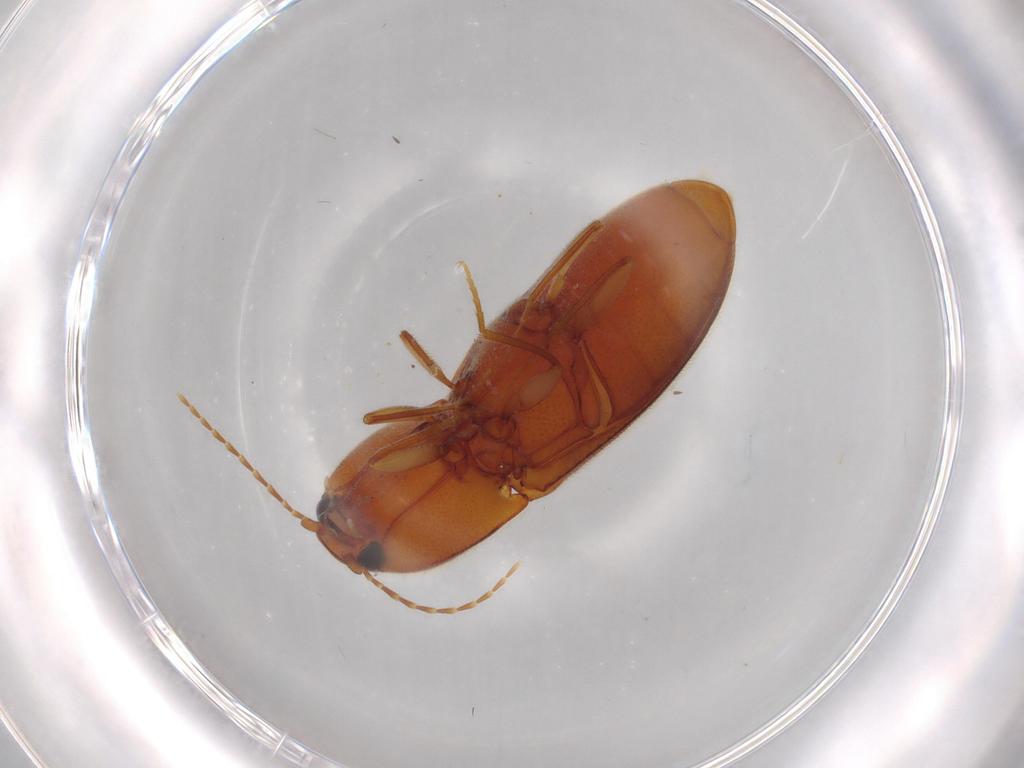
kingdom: Animalia
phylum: Arthropoda
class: Insecta
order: Coleoptera
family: Elateridae
